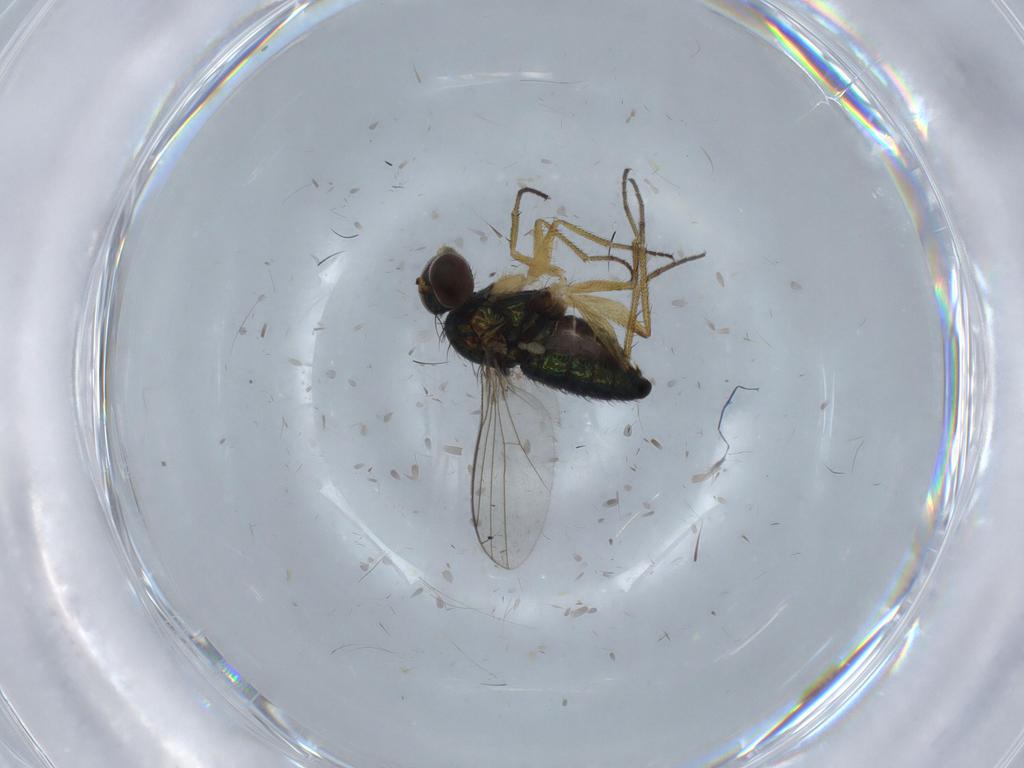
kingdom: Animalia
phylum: Arthropoda
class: Insecta
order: Diptera
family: Dolichopodidae
